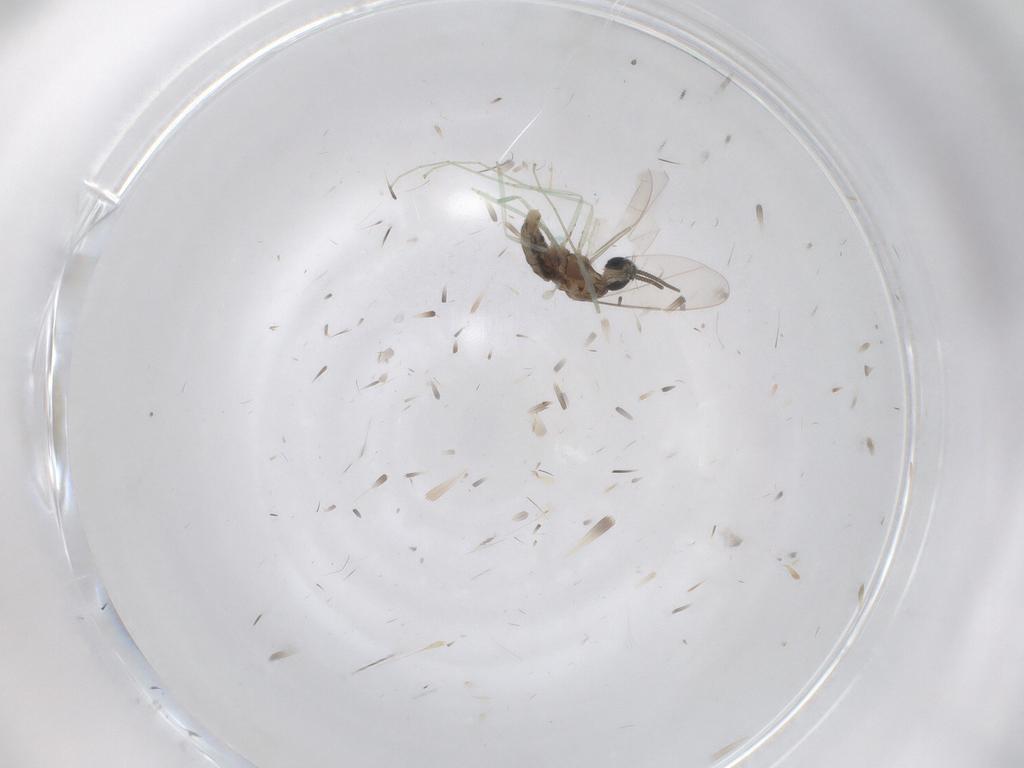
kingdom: Animalia
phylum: Arthropoda
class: Insecta
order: Diptera
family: Cecidomyiidae
